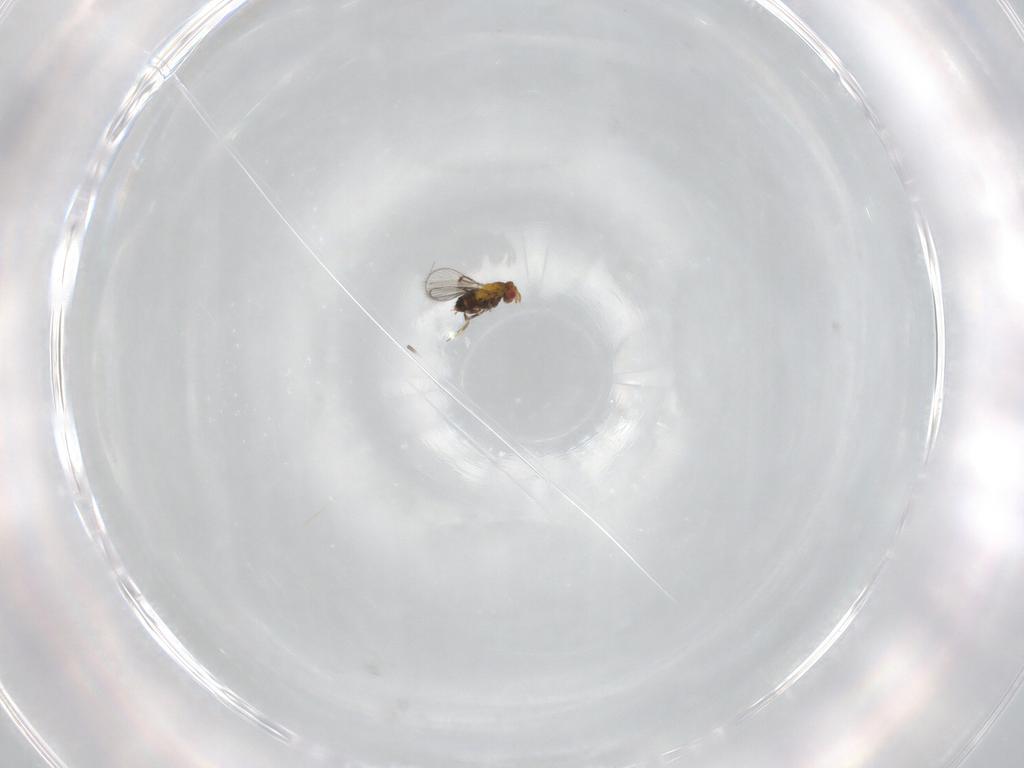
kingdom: Animalia
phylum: Arthropoda
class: Insecta
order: Hymenoptera
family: Trichogrammatidae
